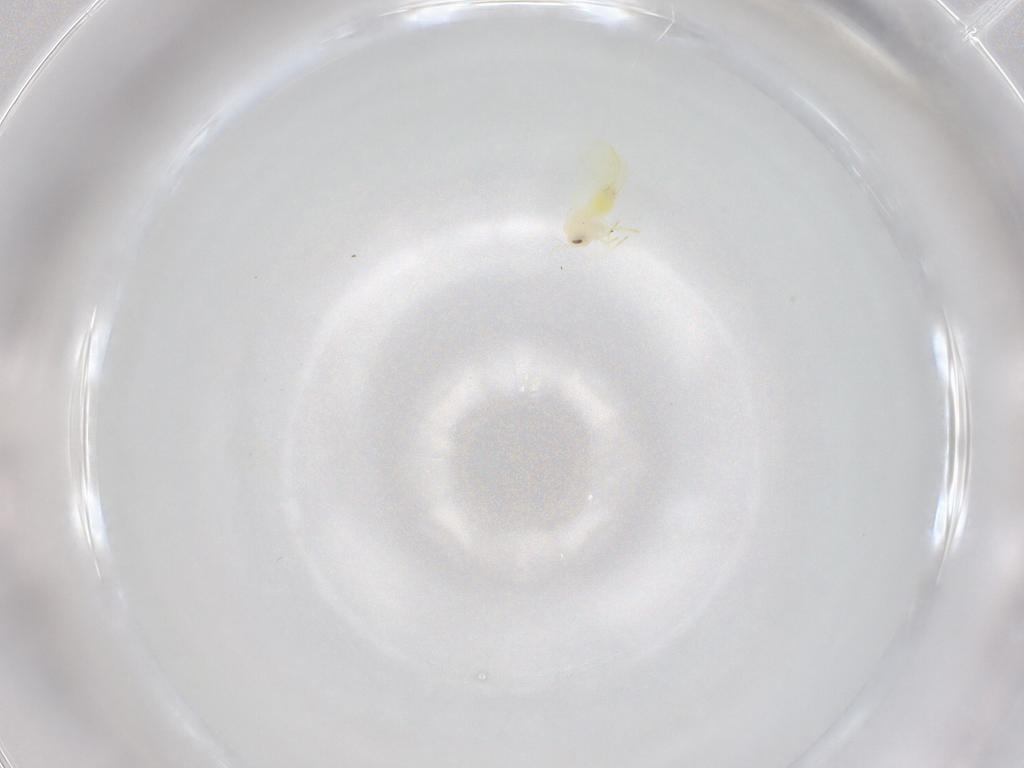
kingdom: Animalia
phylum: Arthropoda
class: Insecta
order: Hemiptera
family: Aleyrodidae
